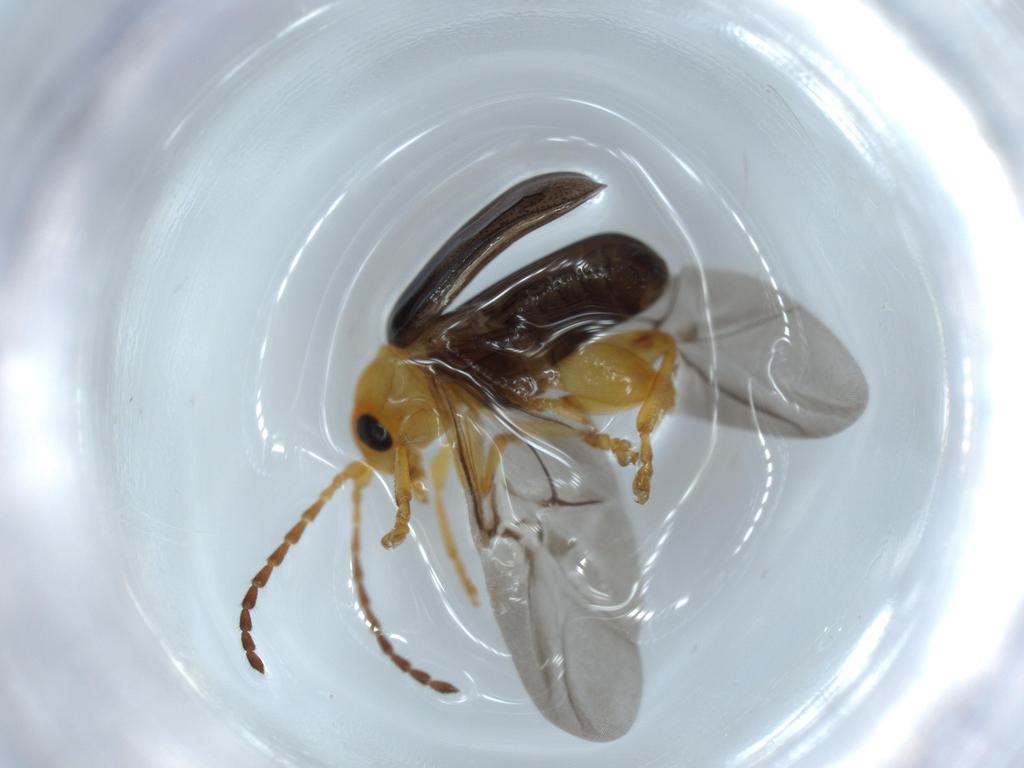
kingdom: Animalia
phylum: Arthropoda
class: Insecta
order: Coleoptera
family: Chrysomelidae
